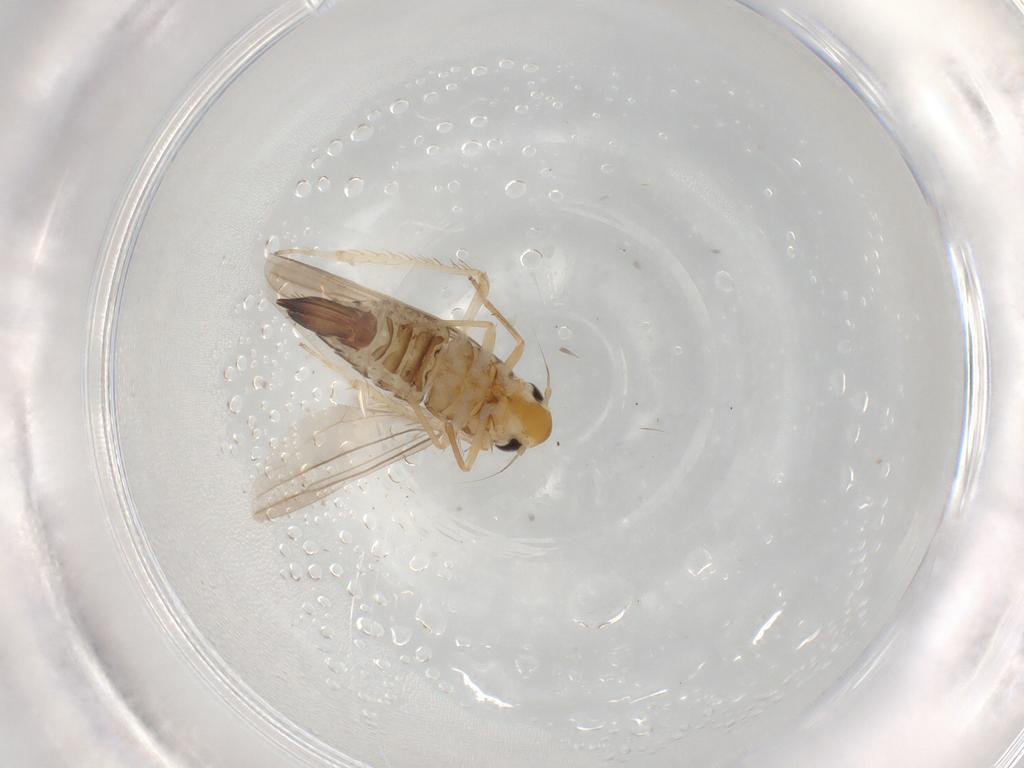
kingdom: Animalia
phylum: Arthropoda
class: Insecta
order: Hemiptera
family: Cicadellidae
